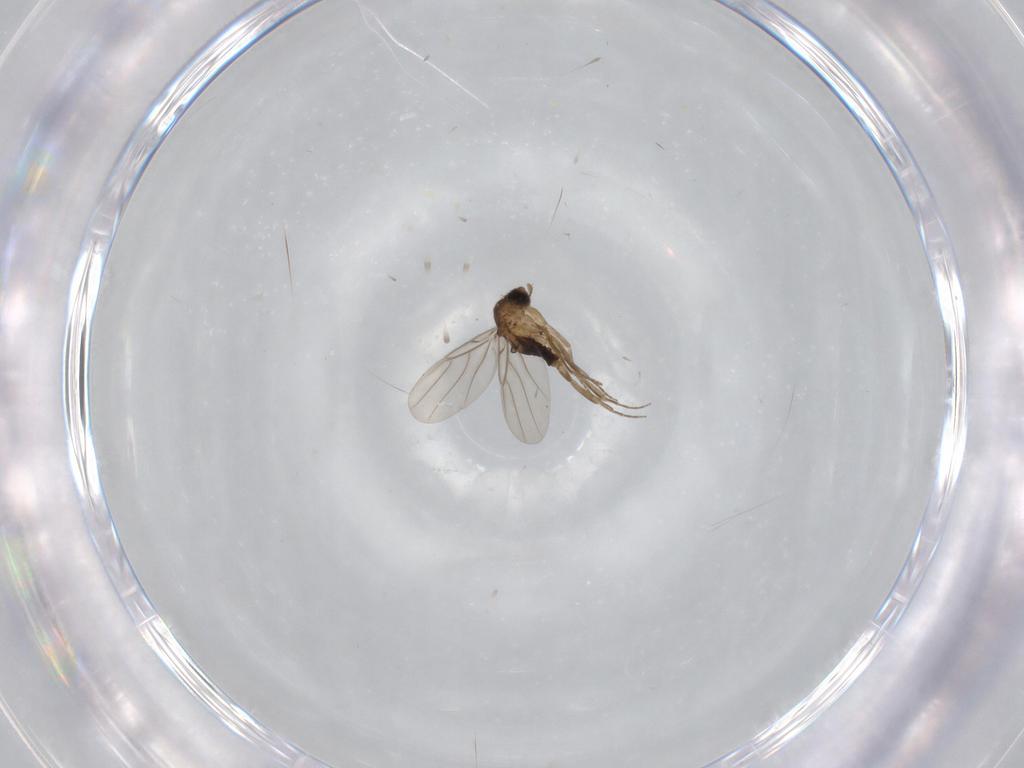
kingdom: Animalia
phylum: Arthropoda
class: Insecta
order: Diptera
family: Phoridae
